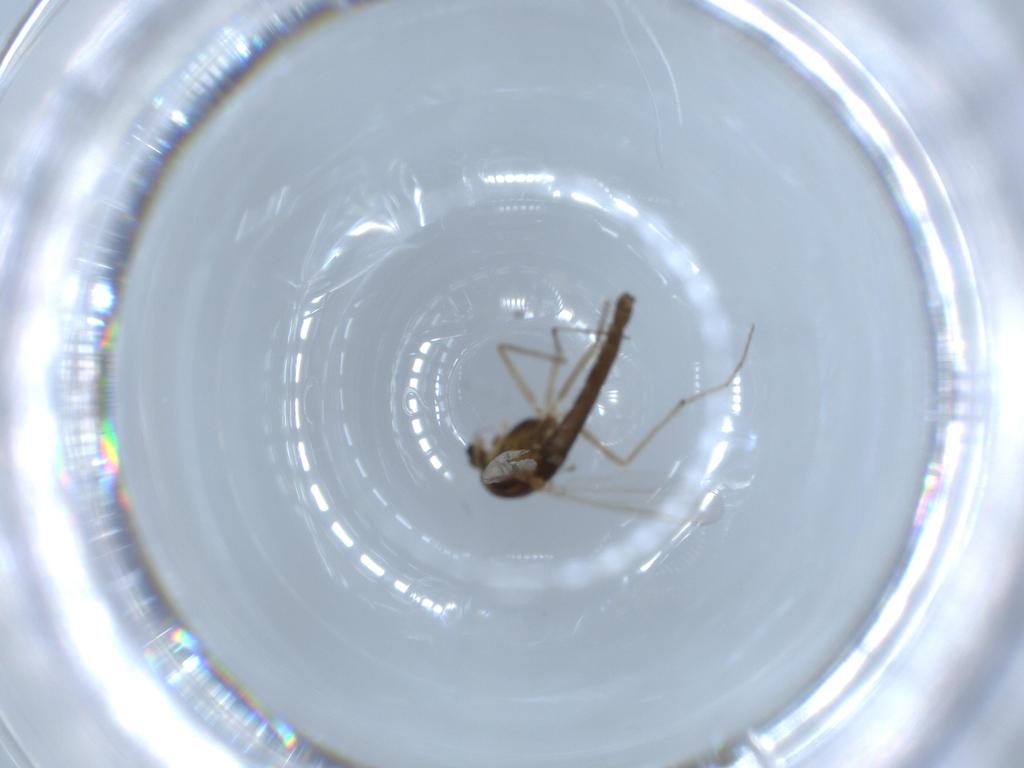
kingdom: Animalia
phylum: Arthropoda
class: Insecta
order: Diptera
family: Chironomidae
